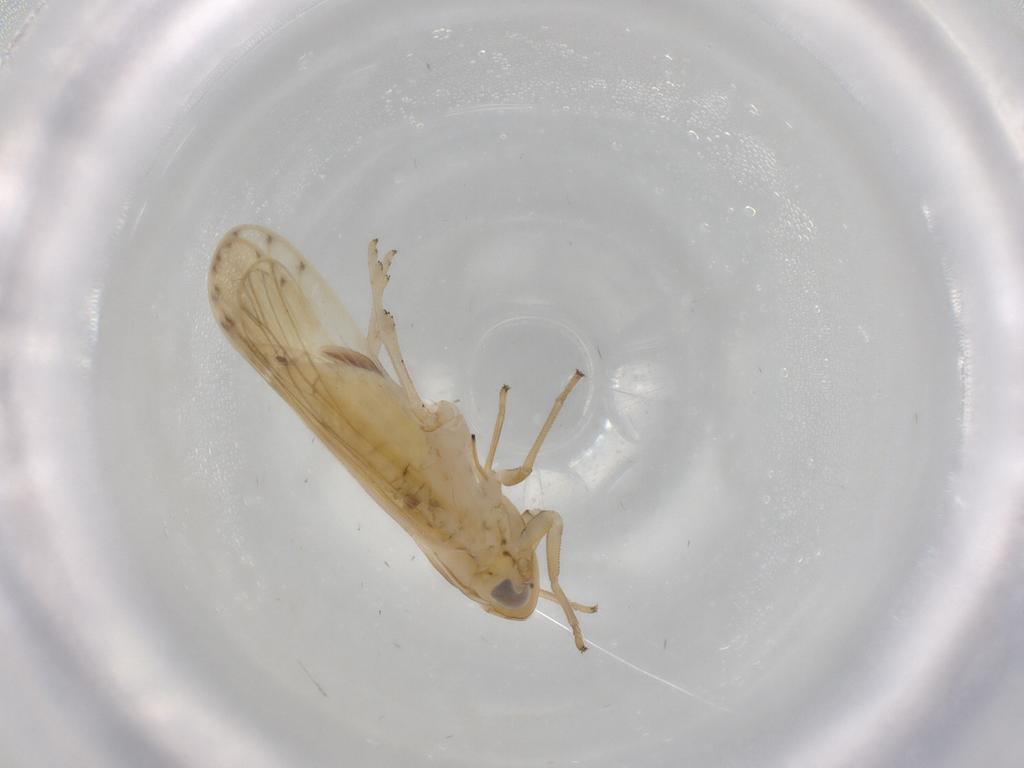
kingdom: Animalia
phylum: Arthropoda
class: Insecta
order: Hemiptera
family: Delphacidae
